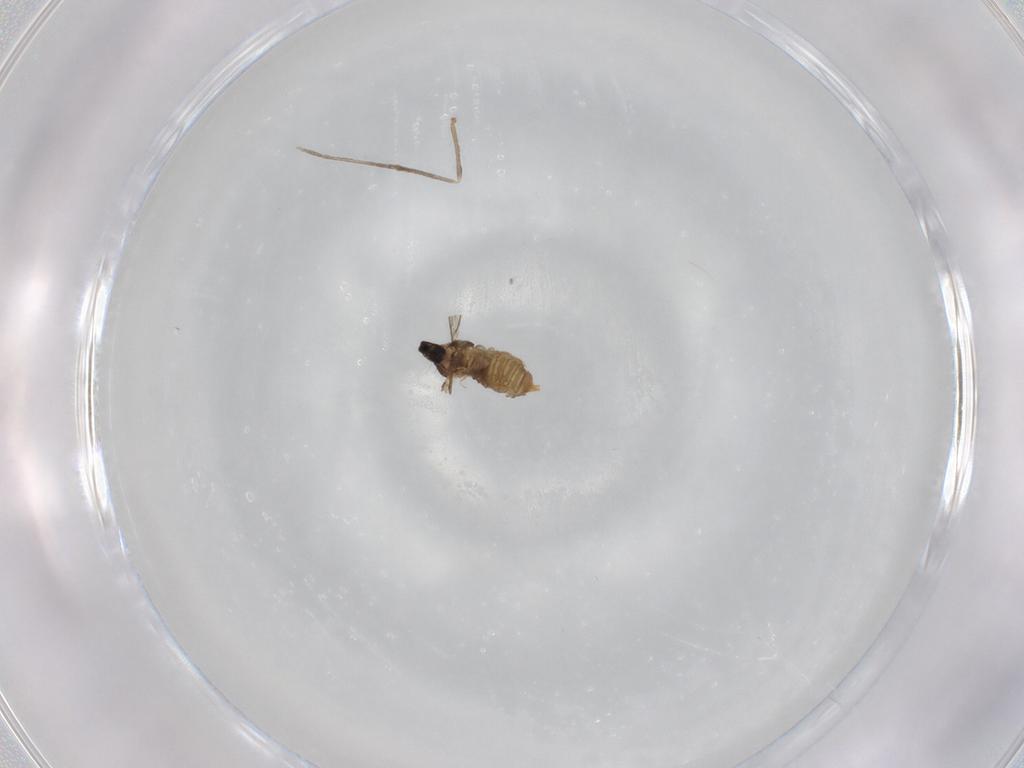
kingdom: Animalia
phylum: Arthropoda
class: Insecta
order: Diptera
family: Cecidomyiidae
